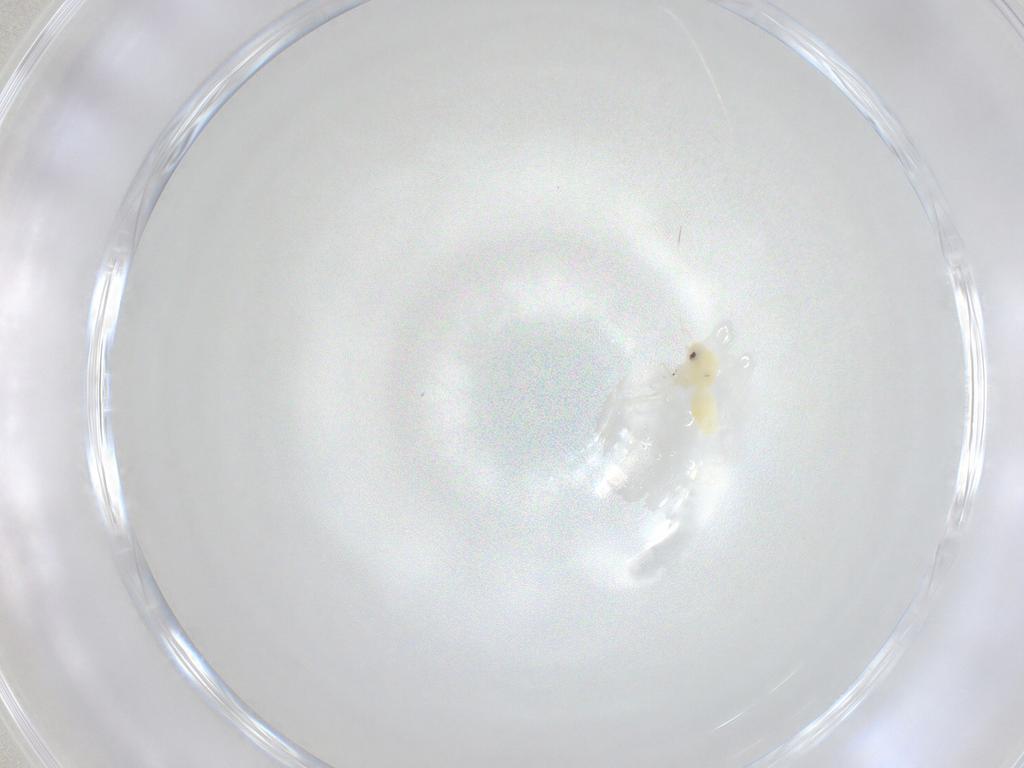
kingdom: Animalia
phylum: Arthropoda
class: Insecta
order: Hemiptera
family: Aleyrodidae
